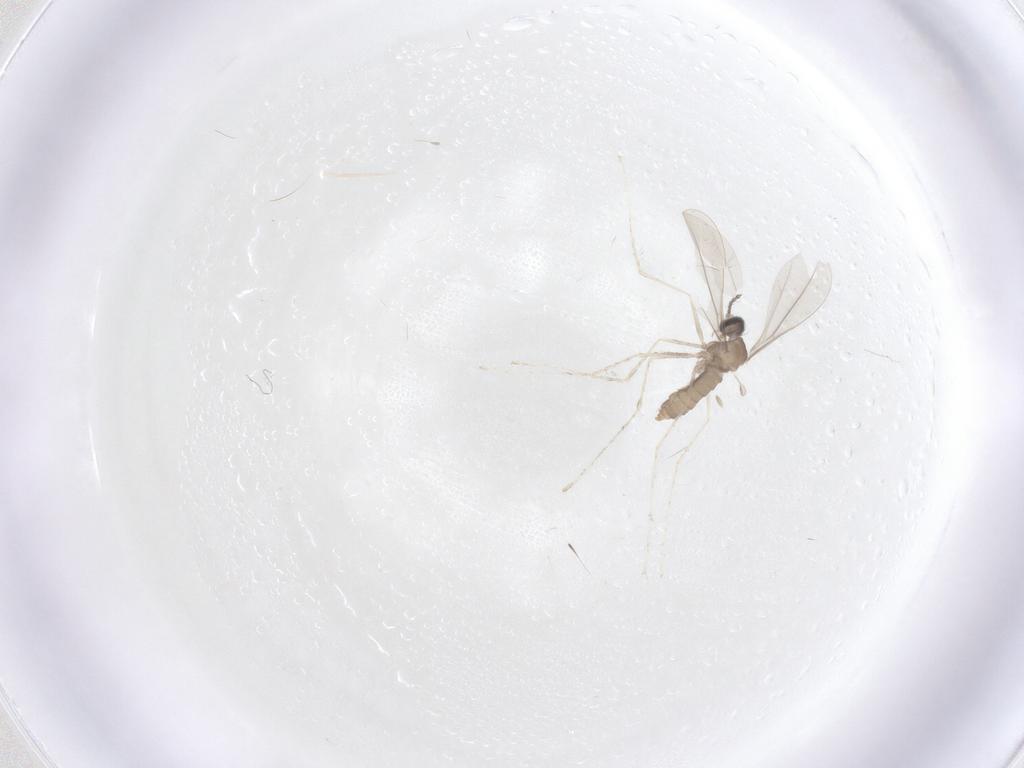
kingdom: Animalia
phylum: Arthropoda
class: Insecta
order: Diptera
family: Cecidomyiidae
